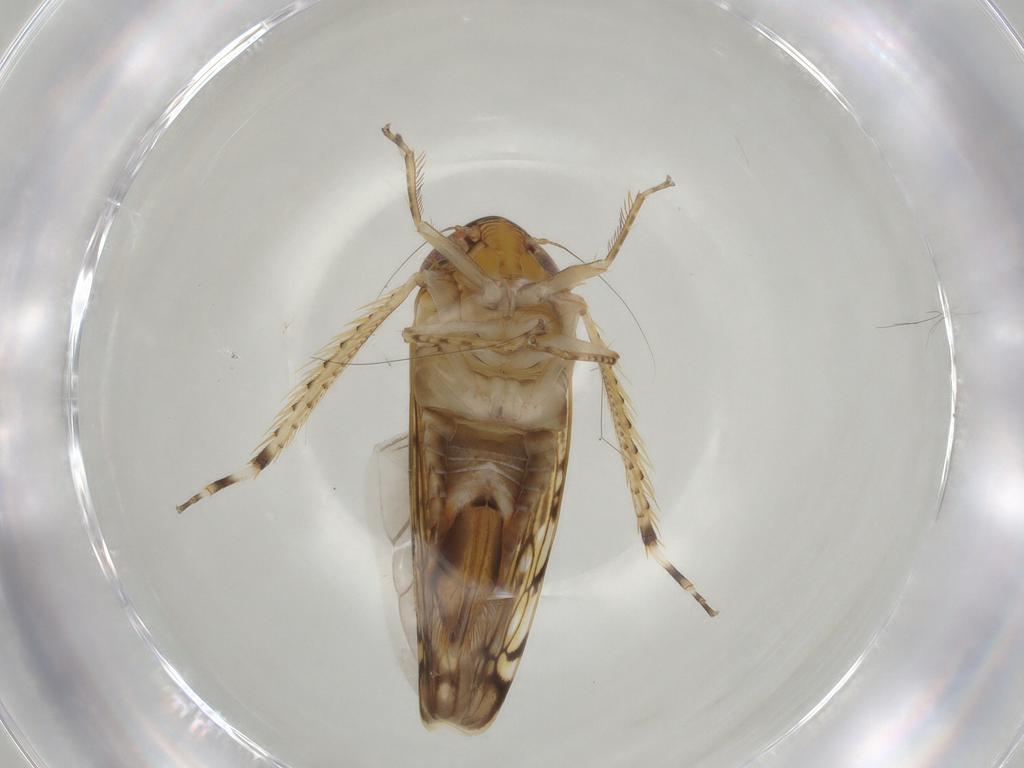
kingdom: Animalia
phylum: Arthropoda
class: Insecta
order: Hemiptera
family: Cicadellidae
